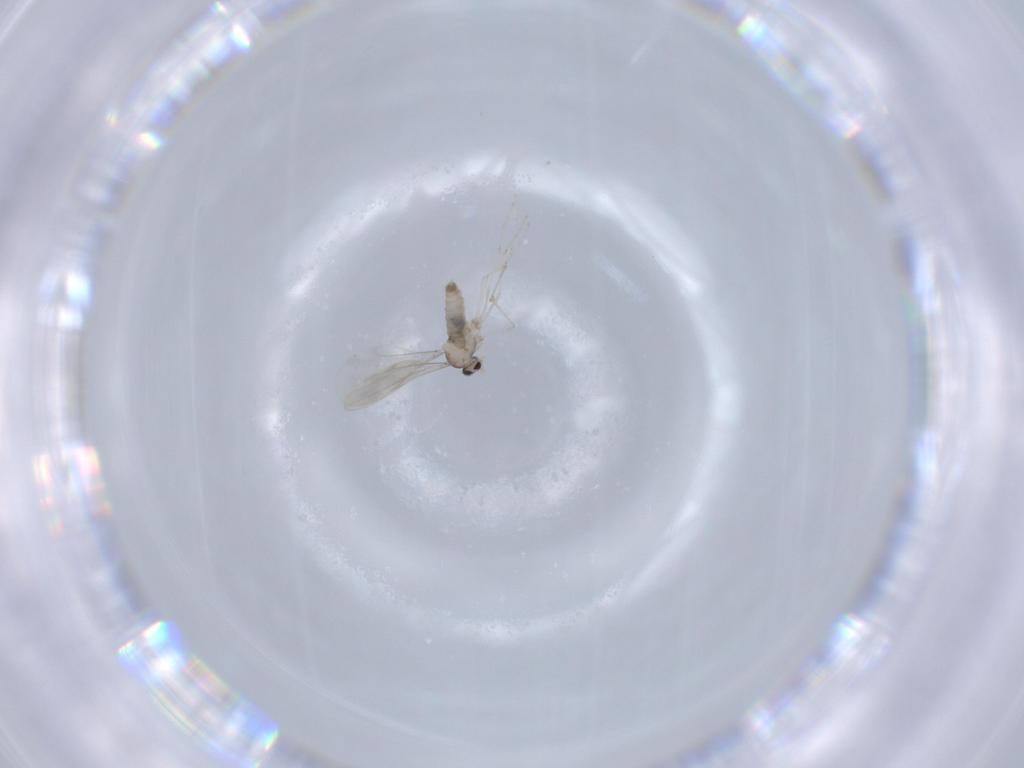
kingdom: Animalia
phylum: Arthropoda
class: Insecta
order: Diptera
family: Cecidomyiidae
